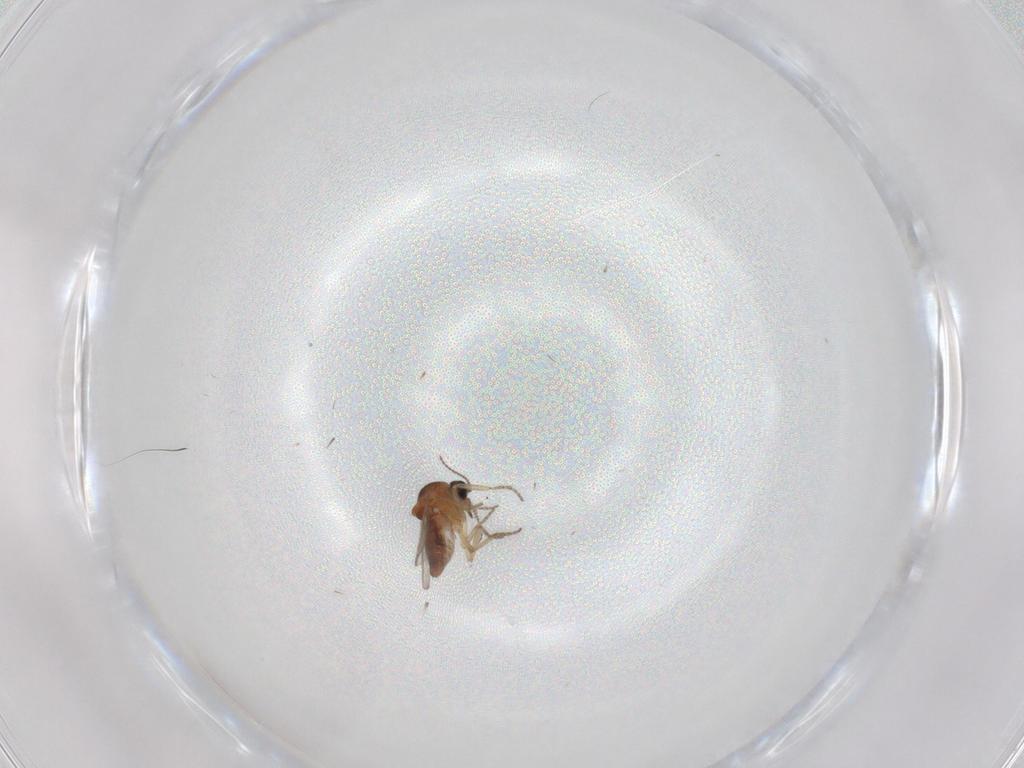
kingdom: Animalia
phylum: Arthropoda
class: Insecta
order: Diptera
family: Ceratopogonidae
